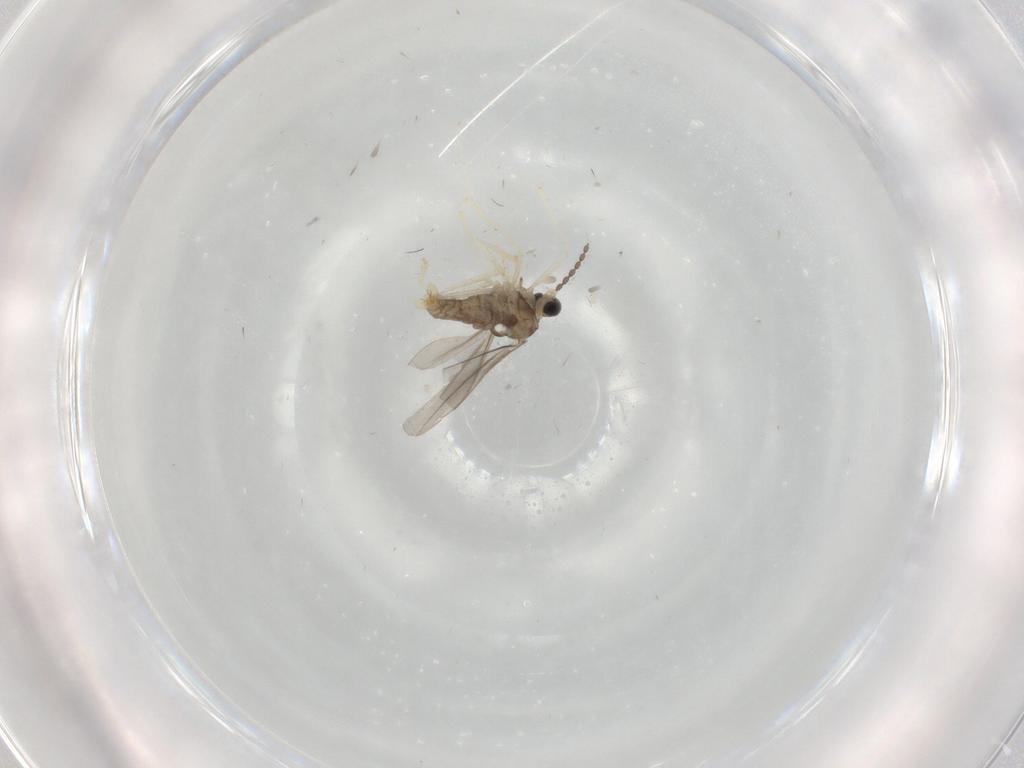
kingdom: Animalia
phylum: Arthropoda
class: Insecta
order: Diptera
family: Cecidomyiidae
